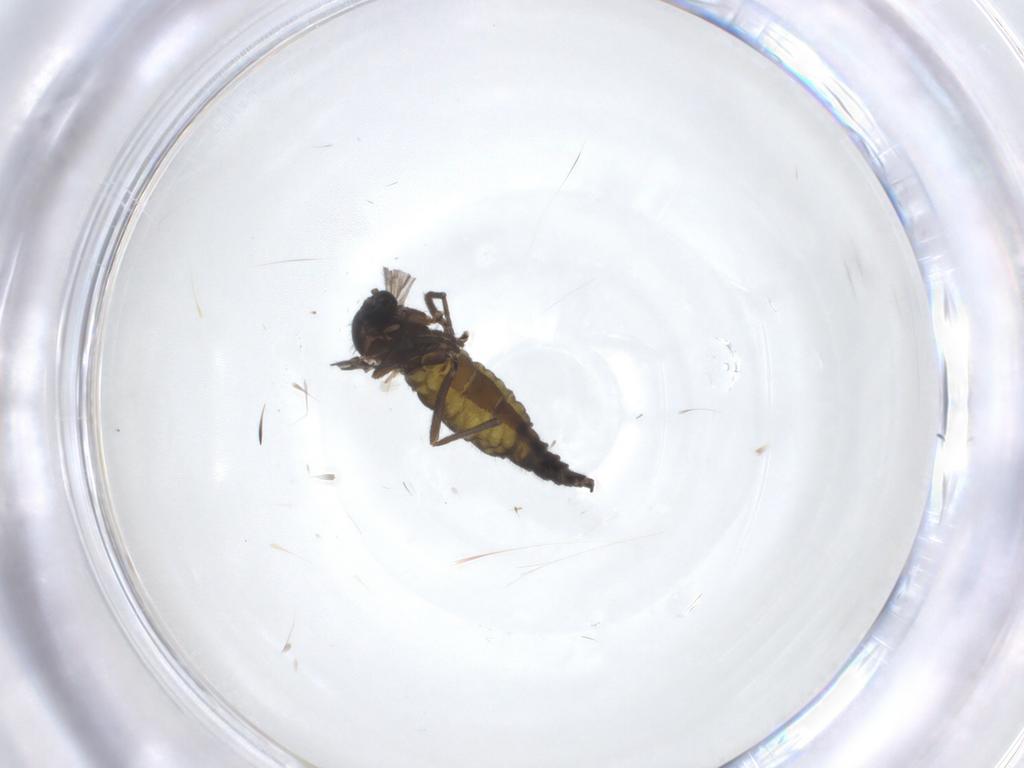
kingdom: Animalia
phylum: Arthropoda
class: Insecta
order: Diptera
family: Sciaridae
